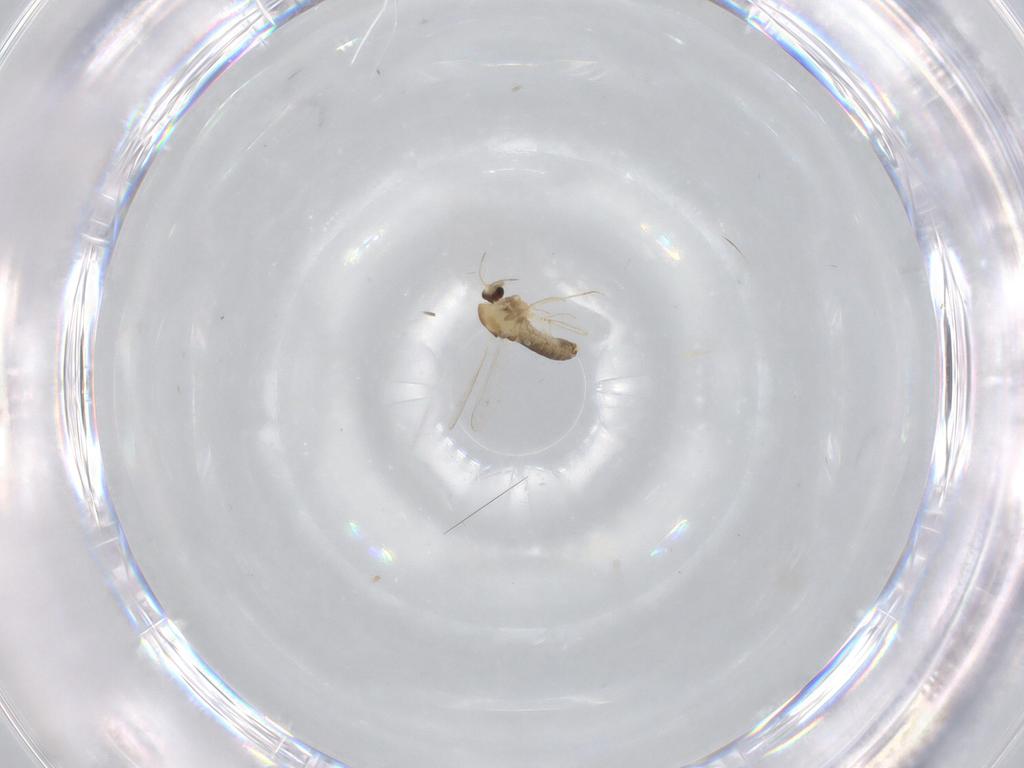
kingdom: Animalia
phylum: Arthropoda
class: Insecta
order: Diptera
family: Chironomidae
